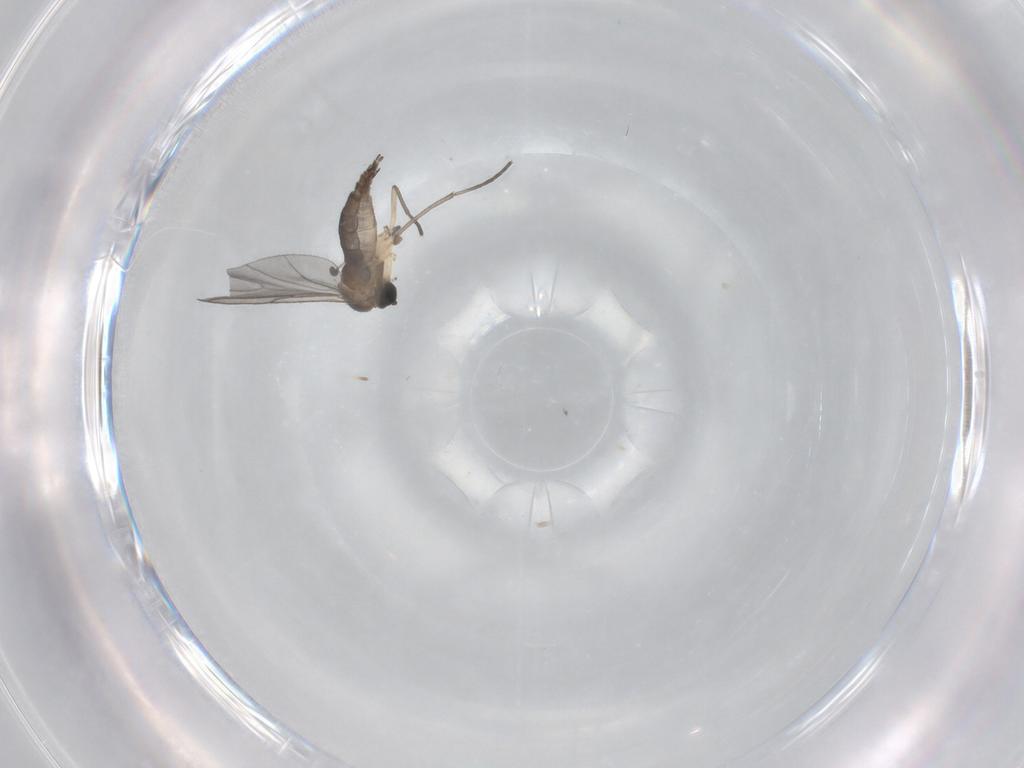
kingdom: Animalia
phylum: Arthropoda
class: Insecta
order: Diptera
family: Sciaridae
